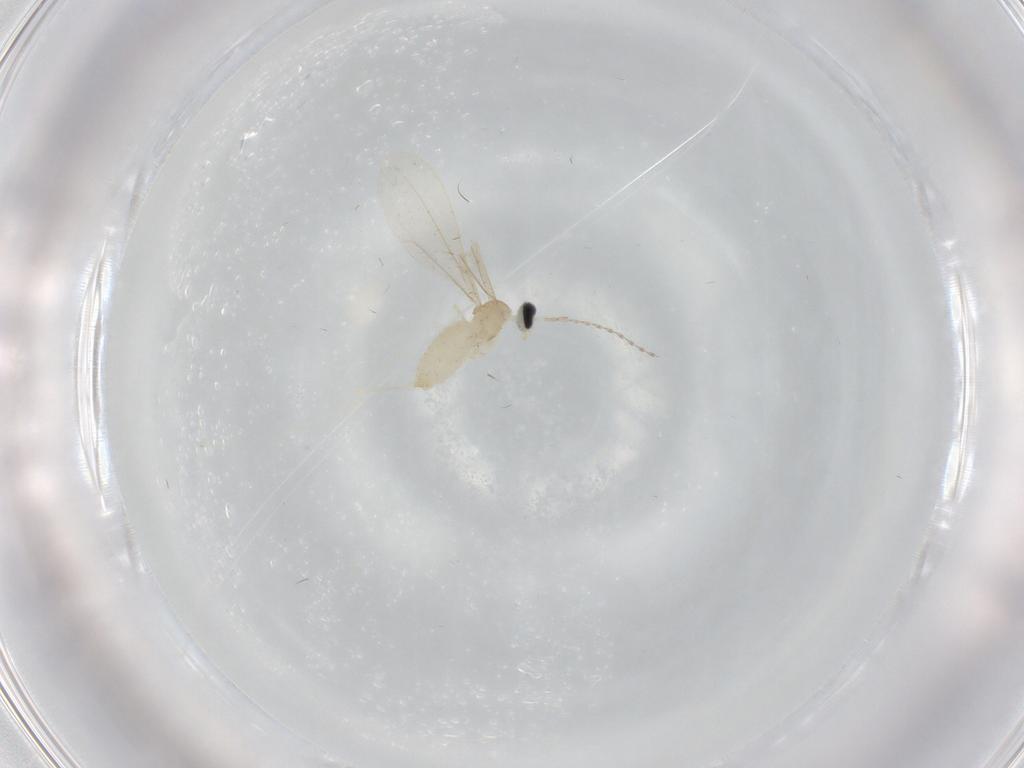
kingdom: Animalia
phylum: Arthropoda
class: Insecta
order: Diptera
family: Cecidomyiidae
